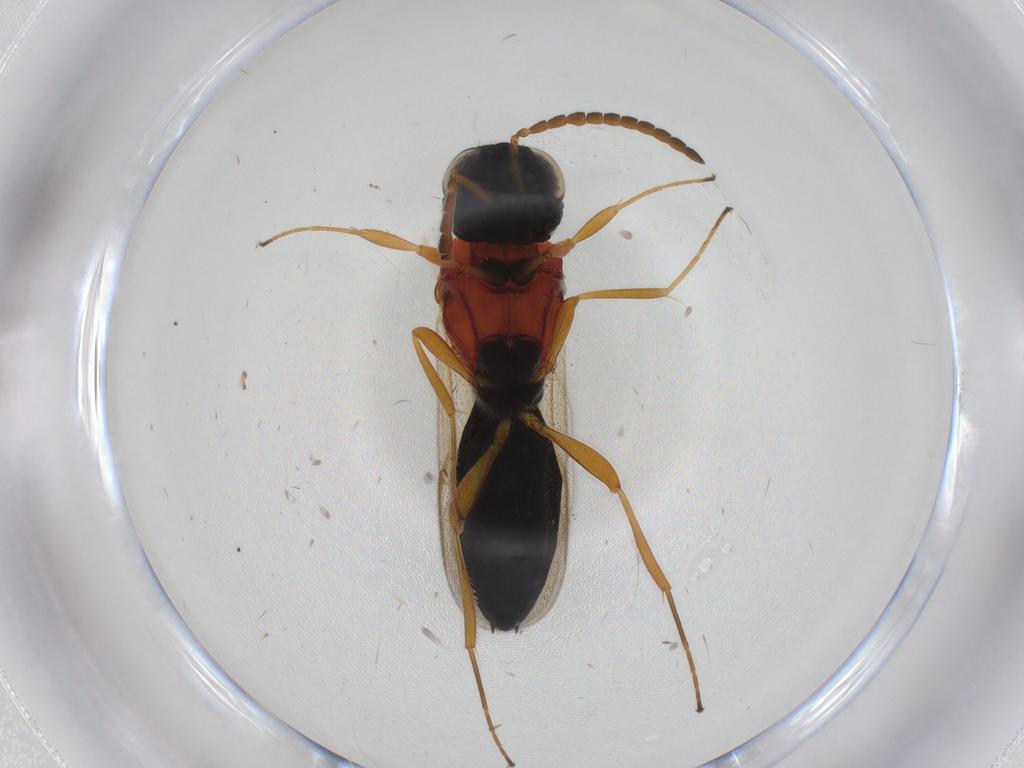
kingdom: Animalia
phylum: Arthropoda
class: Insecta
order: Hymenoptera
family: Scelionidae
